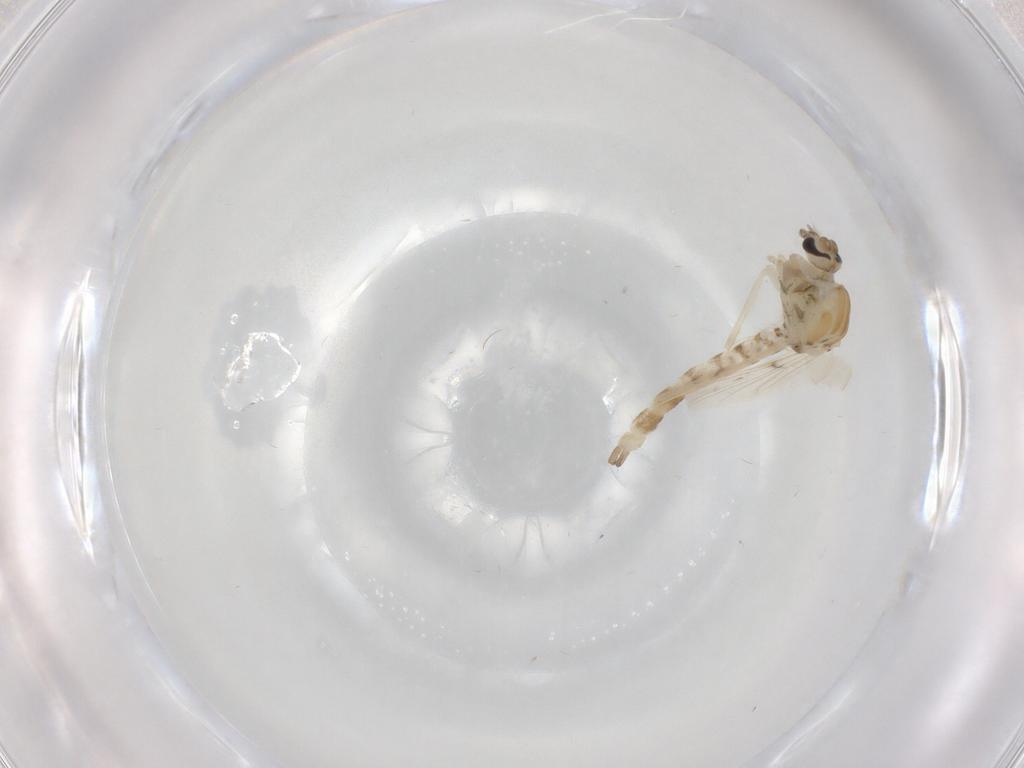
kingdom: Animalia
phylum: Arthropoda
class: Insecta
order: Diptera
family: Chironomidae
